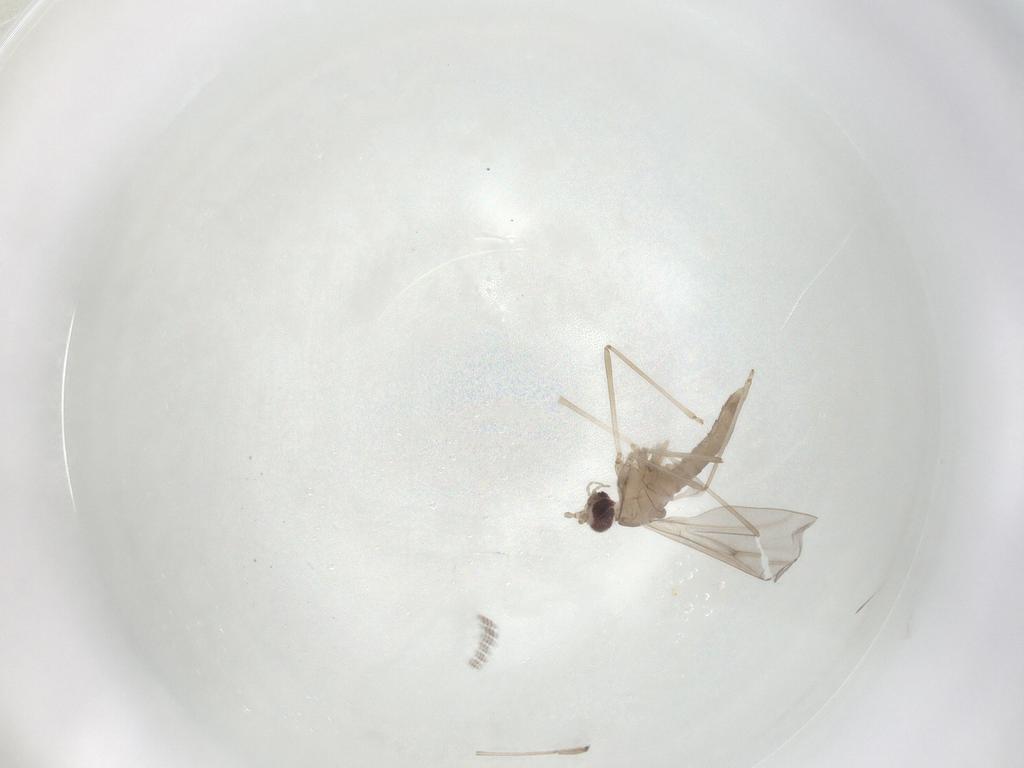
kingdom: Animalia
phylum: Arthropoda
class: Insecta
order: Diptera
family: Cecidomyiidae
